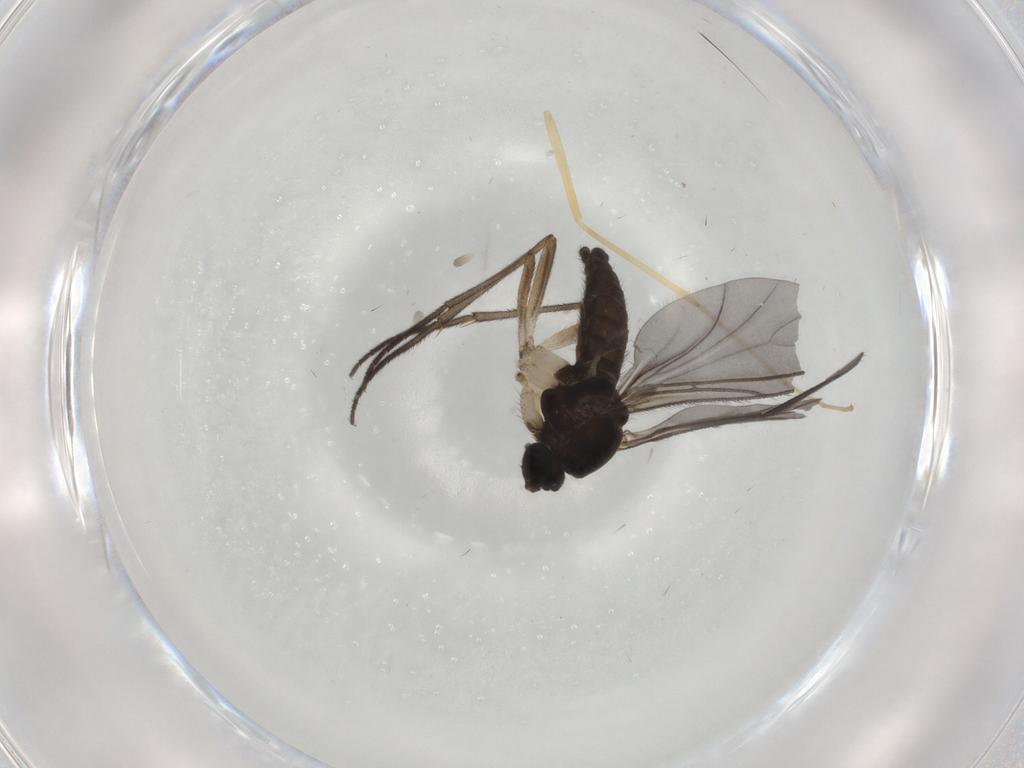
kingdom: Animalia
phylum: Arthropoda
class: Insecta
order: Diptera
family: Sciaridae
